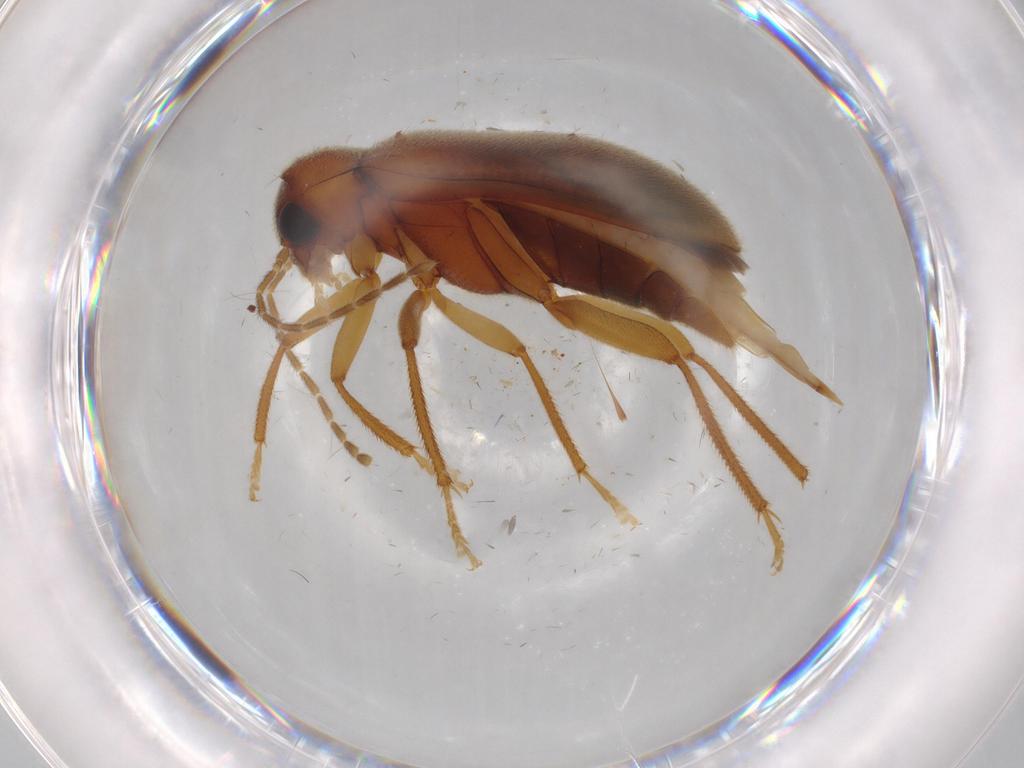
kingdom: Animalia
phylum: Arthropoda
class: Insecta
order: Coleoptera
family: Ptilodactylidae
